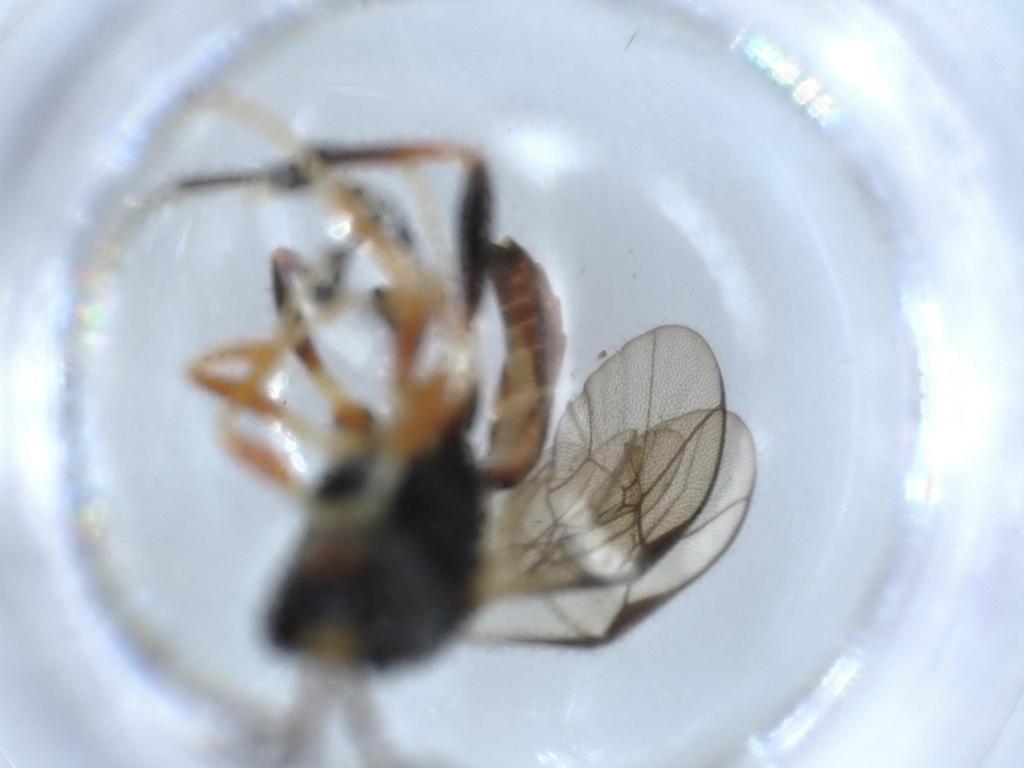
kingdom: Animalia
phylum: Arthropoda
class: Insecta
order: Hymenoptera
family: Ichneumonidae
